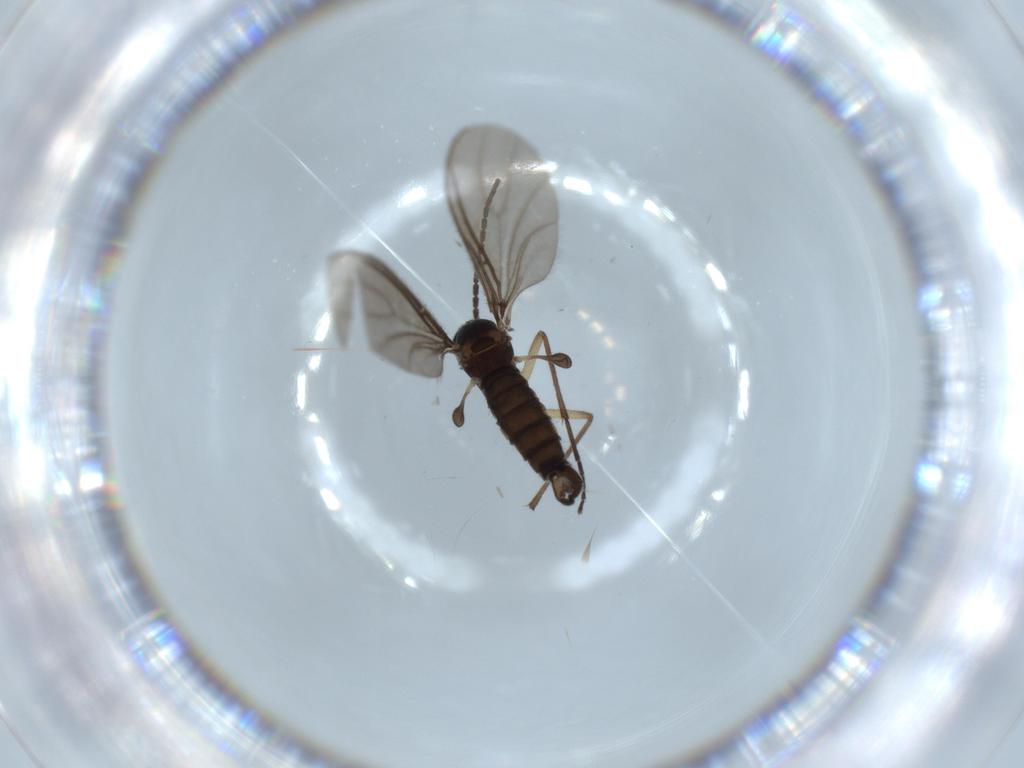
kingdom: Animalia
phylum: Arthropoda
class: Insecta
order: Diptera
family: Sciaridae
